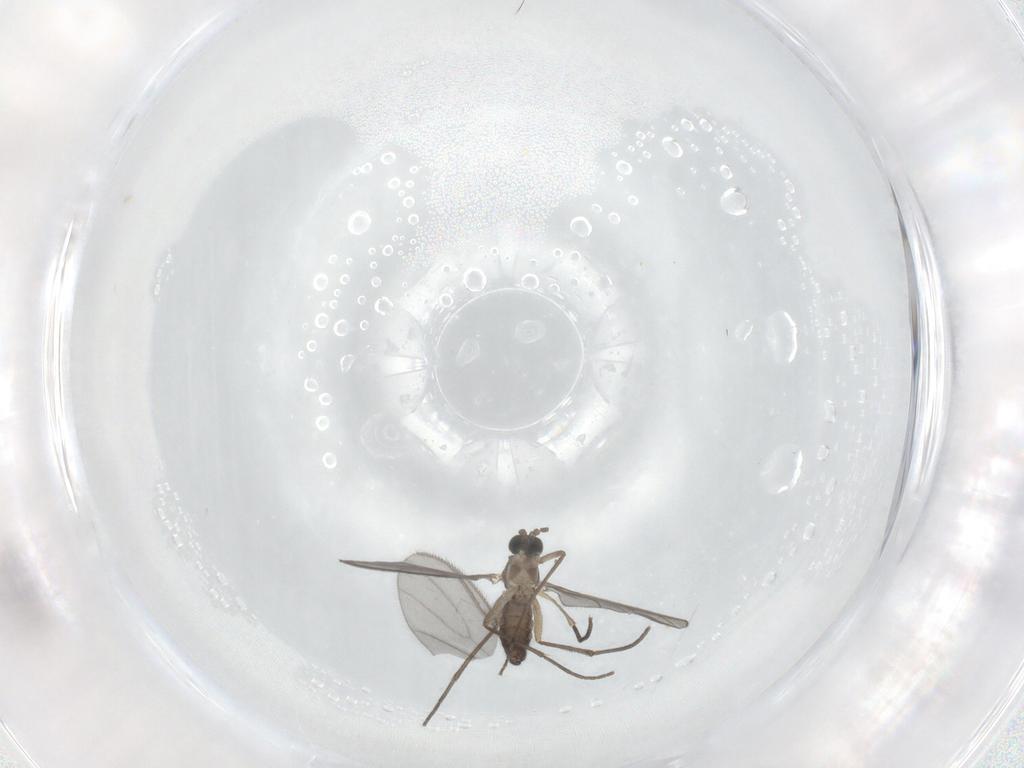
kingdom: Animalia
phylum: Arthropoda
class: Insecta
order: Diptera
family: Sciaridae
